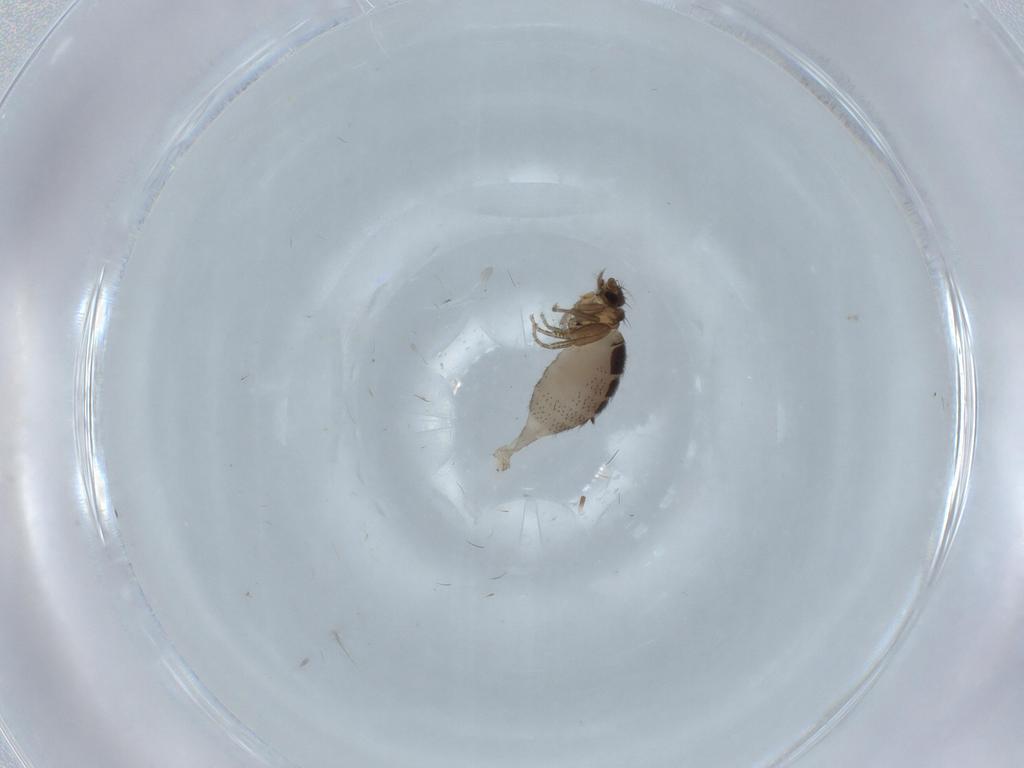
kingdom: Animalia
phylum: Arthropoda
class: Insecta
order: Diptera
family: Phoridae
